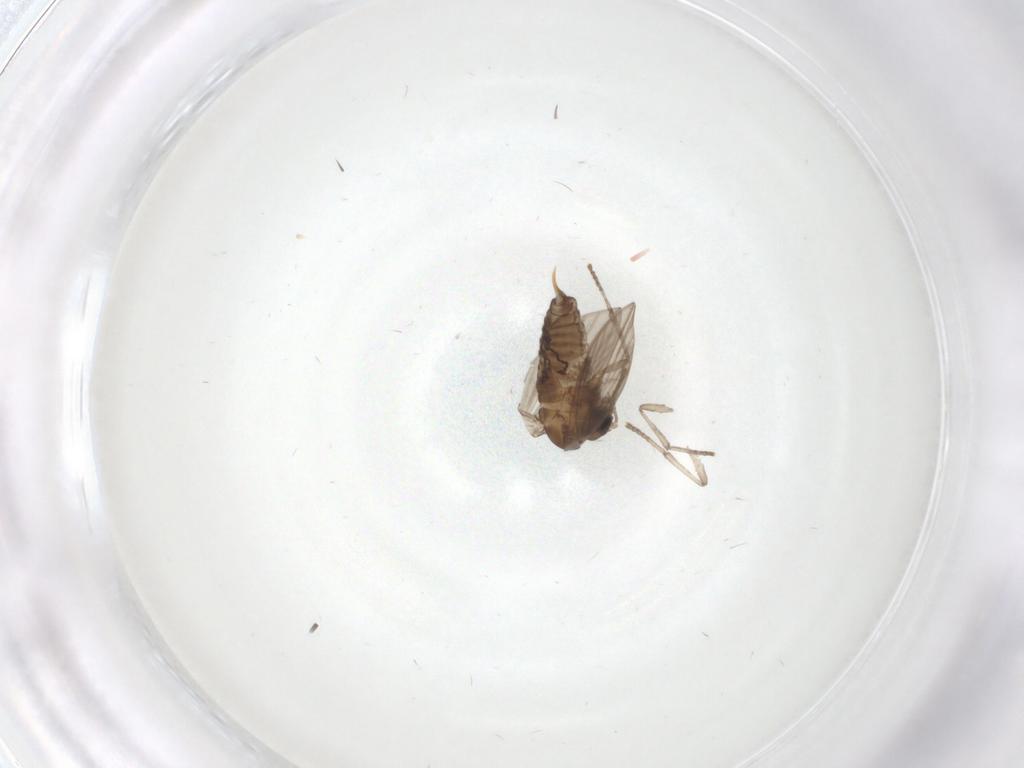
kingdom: Animalia
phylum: Arthropoda
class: Insecta
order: Diptera
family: Psychodidae
